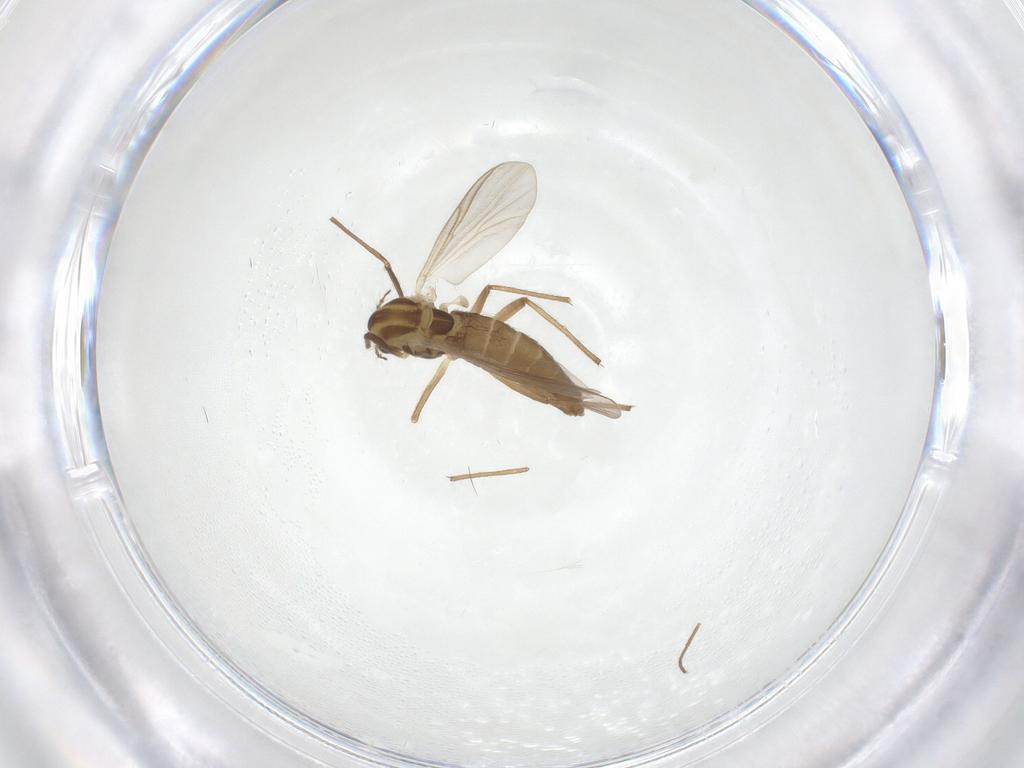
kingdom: Animalia
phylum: Arthropoda
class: Insecta
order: Diptera
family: Chironomidae
